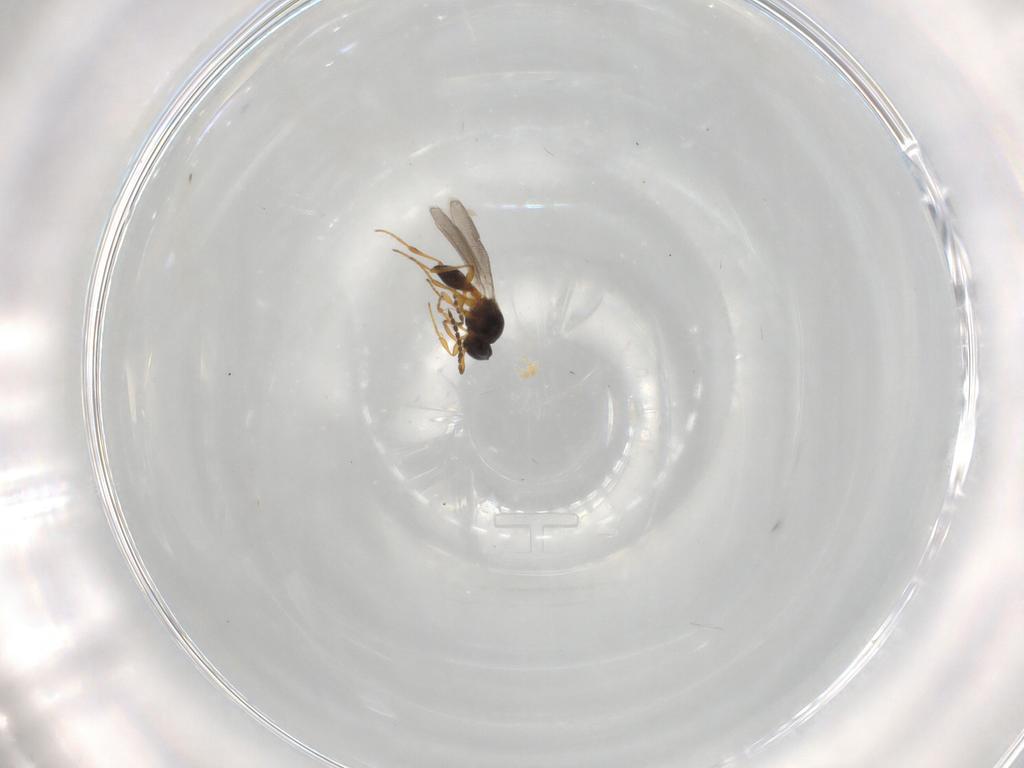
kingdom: Animalia
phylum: Arthropoda
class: Insecta
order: Hymenoptera
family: Platygastridae
